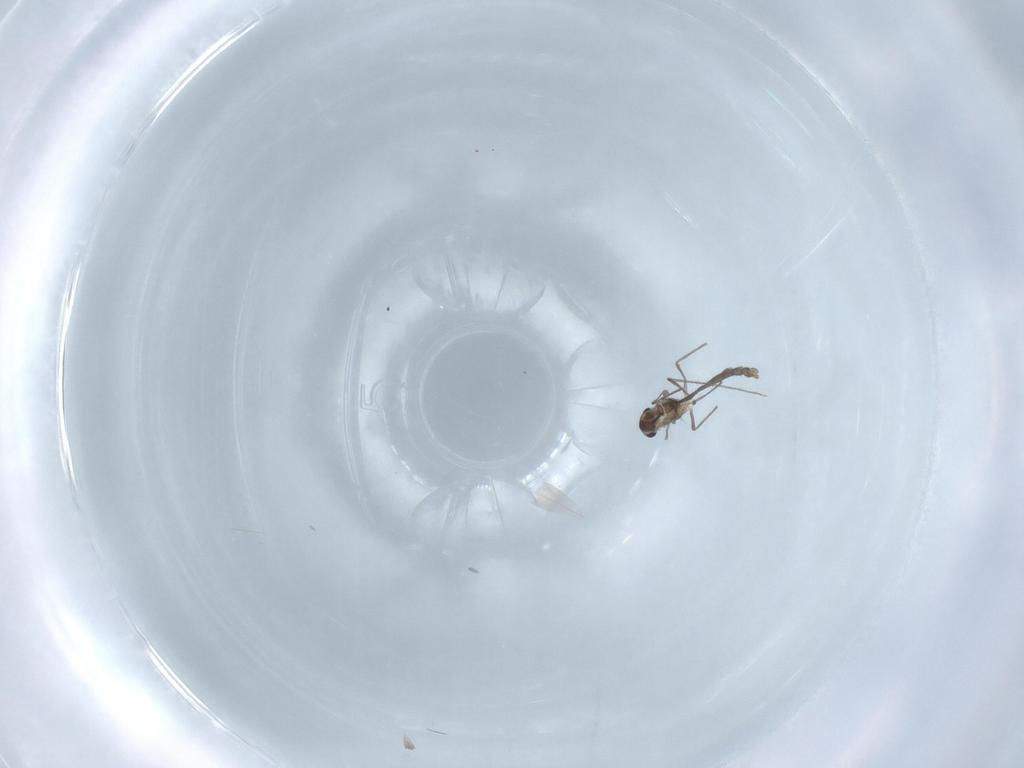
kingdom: Animalia
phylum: Arthropoda
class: Insecta
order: Diptera
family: Chironomidae
